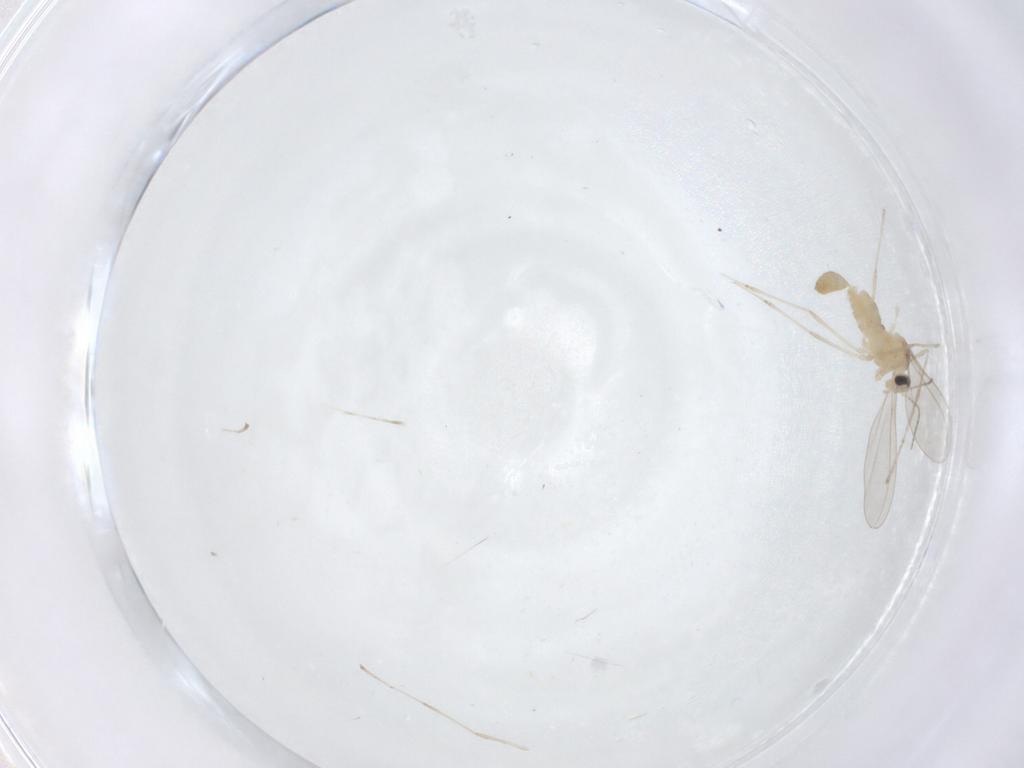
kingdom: Animalia
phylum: Arthropoda
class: Insecta
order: Diptera
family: Cecidomyiidae
